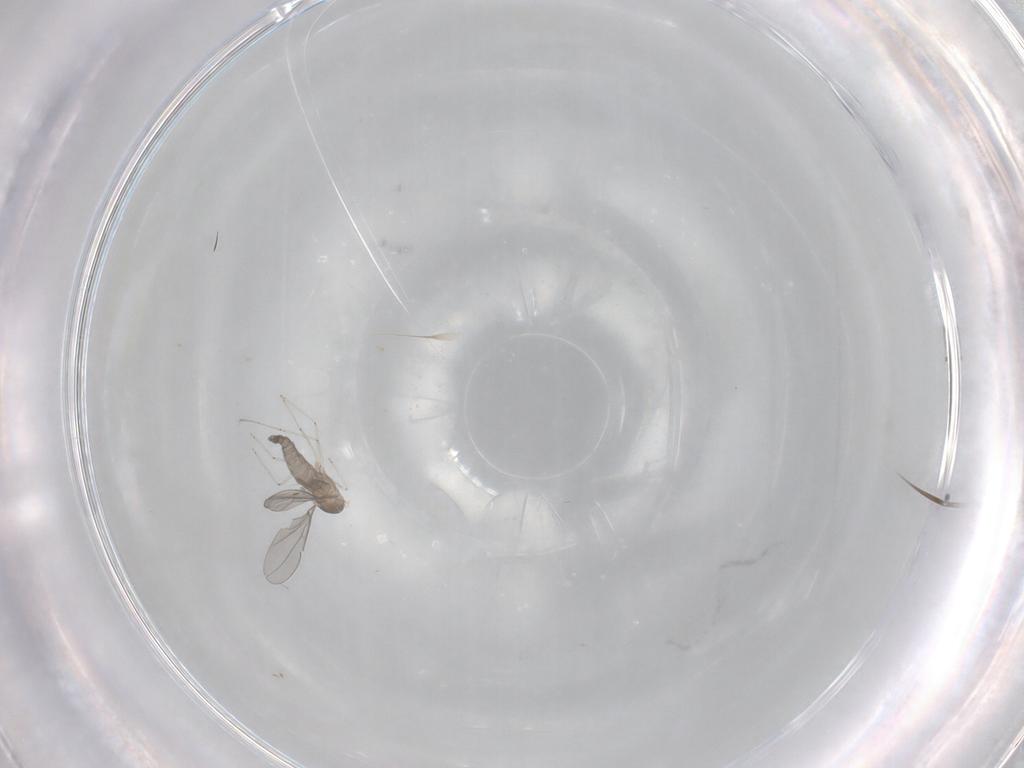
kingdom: Animalia
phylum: Arthropoda
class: Insecta
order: Diptera
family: Phoridae
